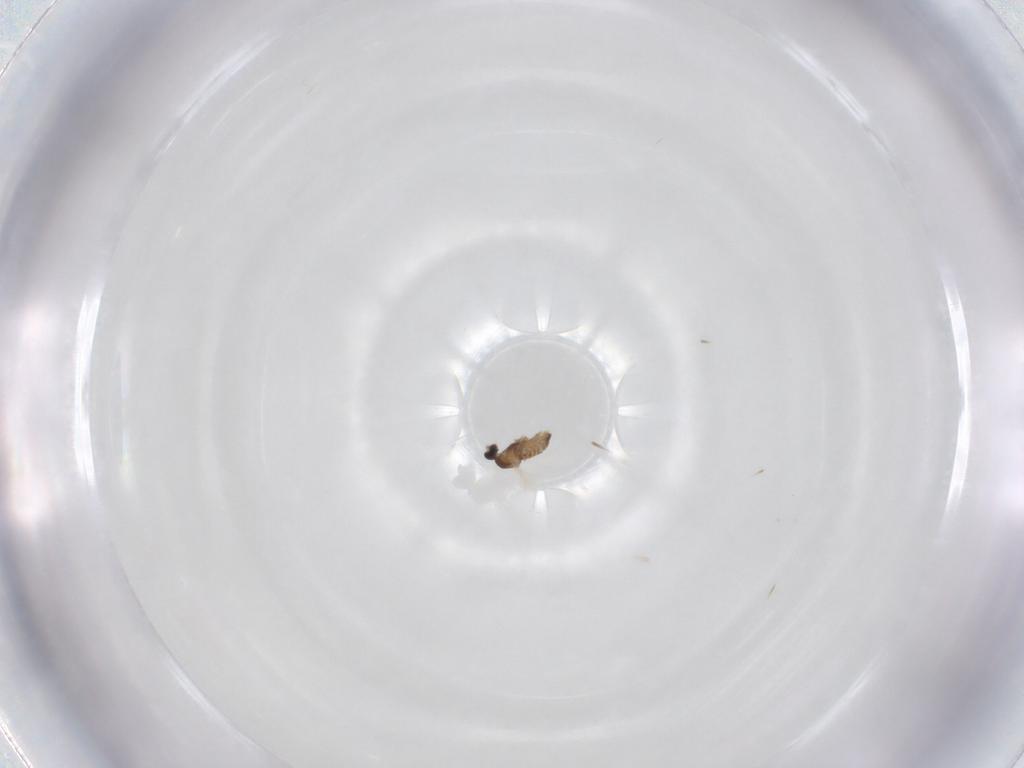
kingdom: Animalia
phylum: Arthropoda
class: Insecta
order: Diptera
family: Cecidomyiidae
